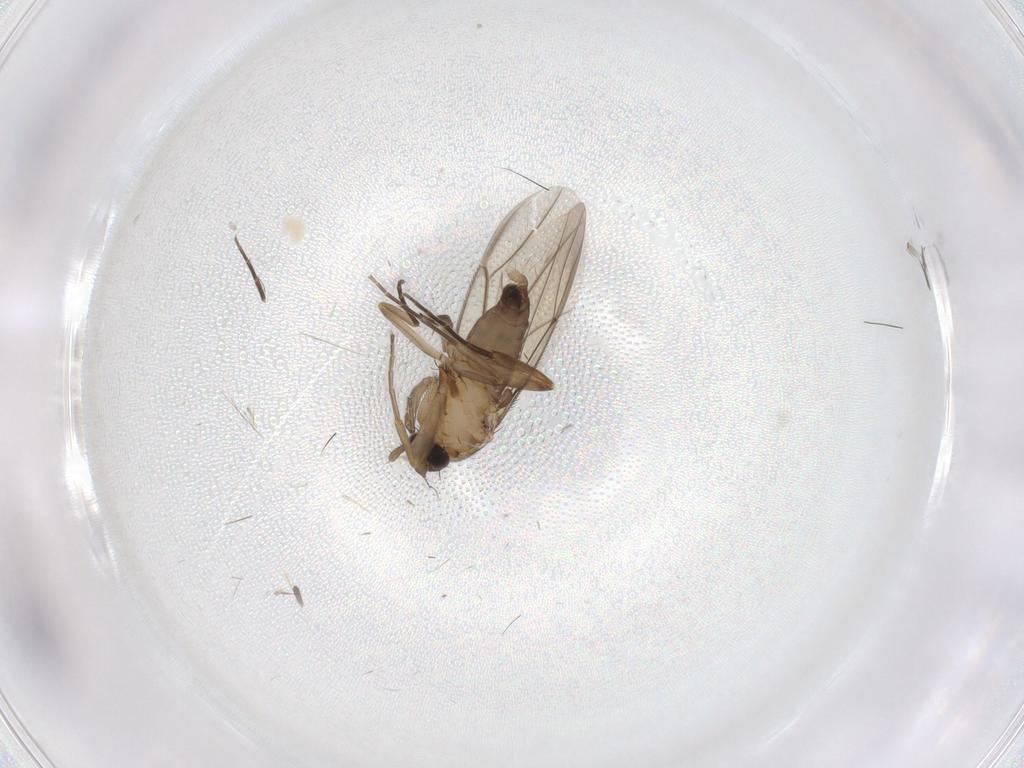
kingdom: Animalia
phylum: Arthropoda
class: Insecta
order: Diptera
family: Phoridae
